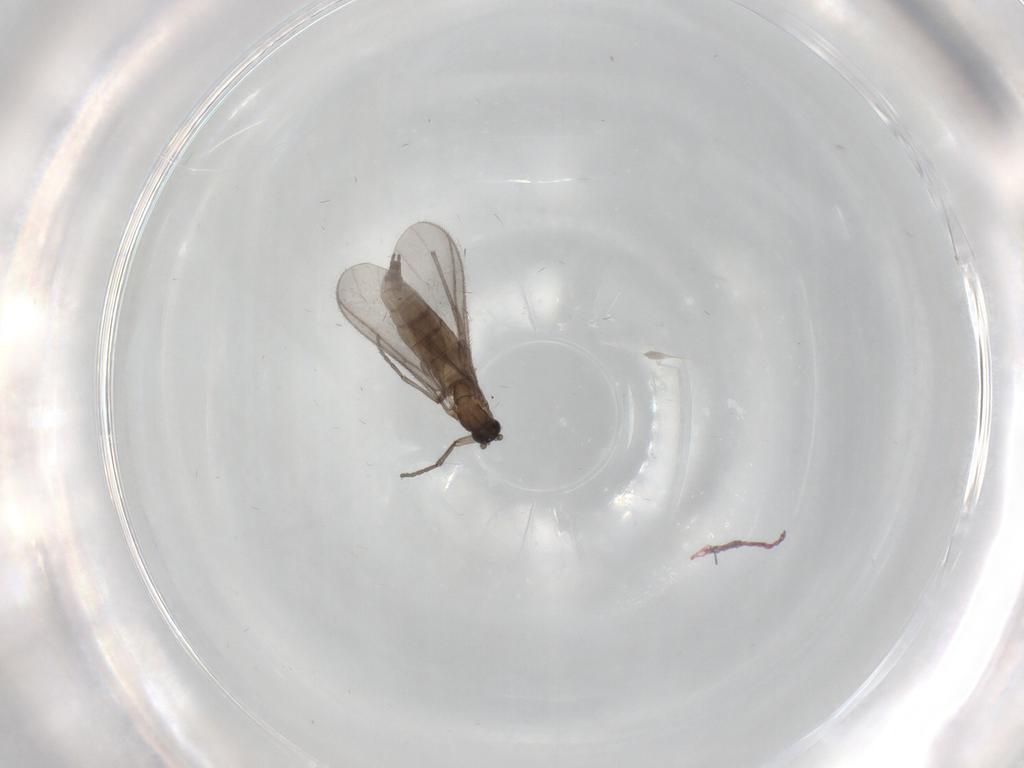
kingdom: Animalia
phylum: Arthropoda
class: Insecta
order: Diptera
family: Sciaridae
